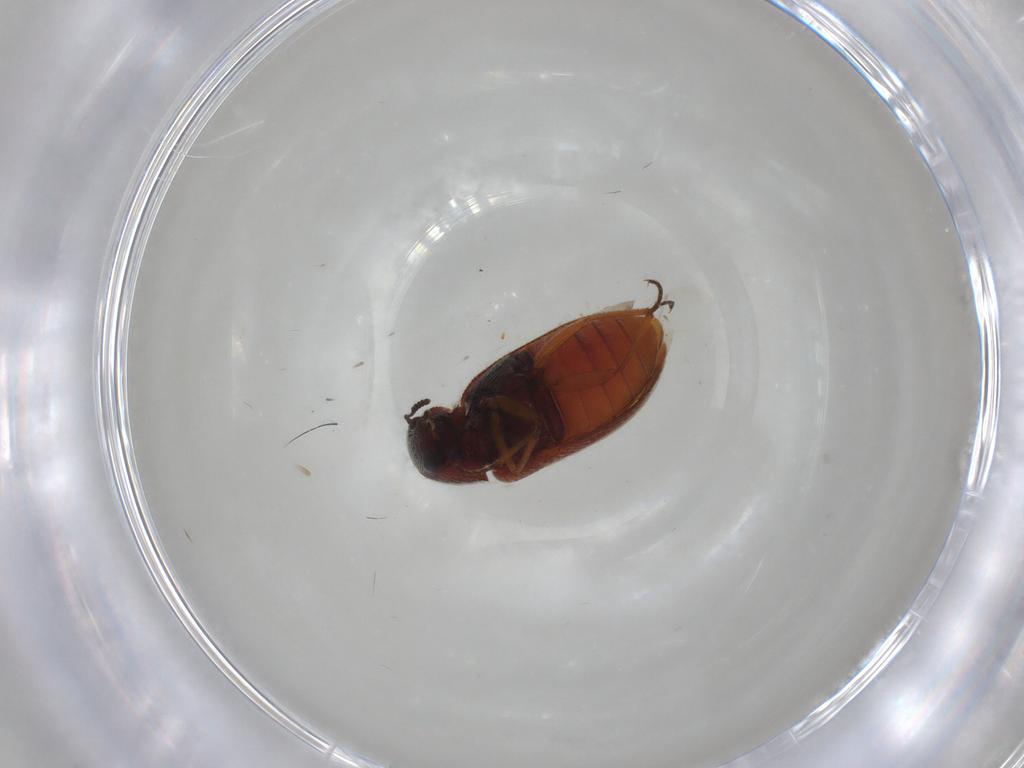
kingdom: Animalia
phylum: Arthropoda
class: Insecta
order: Coleoptera
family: Rhadalidae
